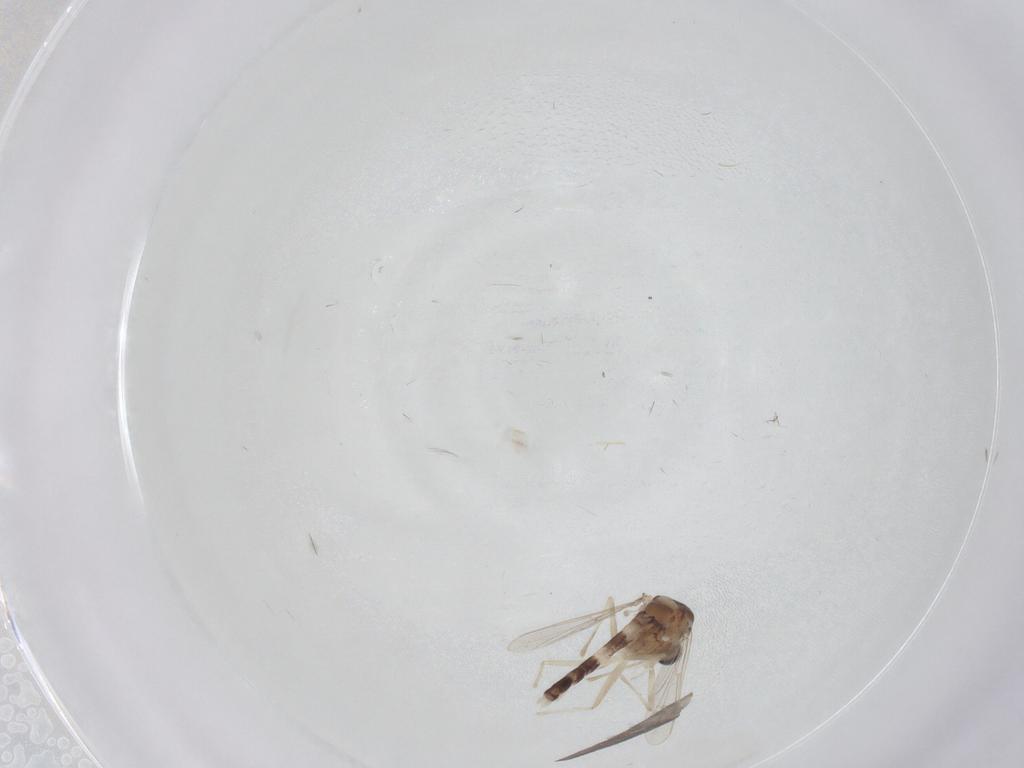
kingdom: Animalia
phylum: Arthropoda
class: Insecta
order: Diptera
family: Chironomidae
